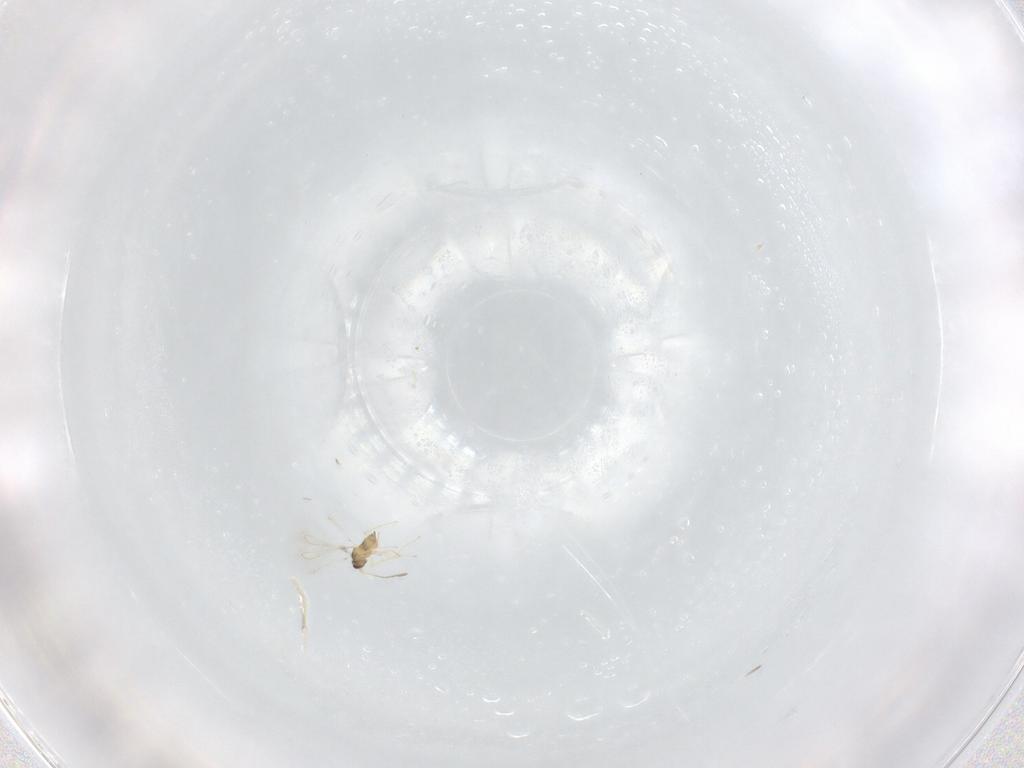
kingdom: Animalia
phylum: Arthropoda
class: Insecta
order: Hymenoptera
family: Mymaridae
